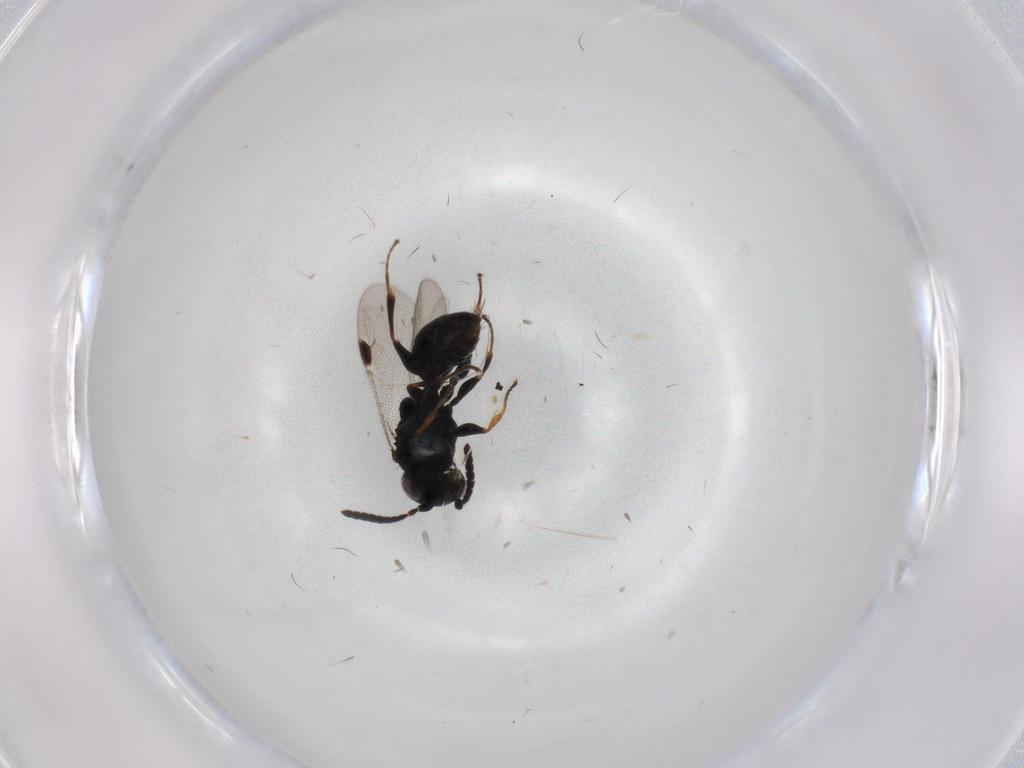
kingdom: Animalia
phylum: Arthropoda
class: Insecta
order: Hymenoptera
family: Dryinidae
